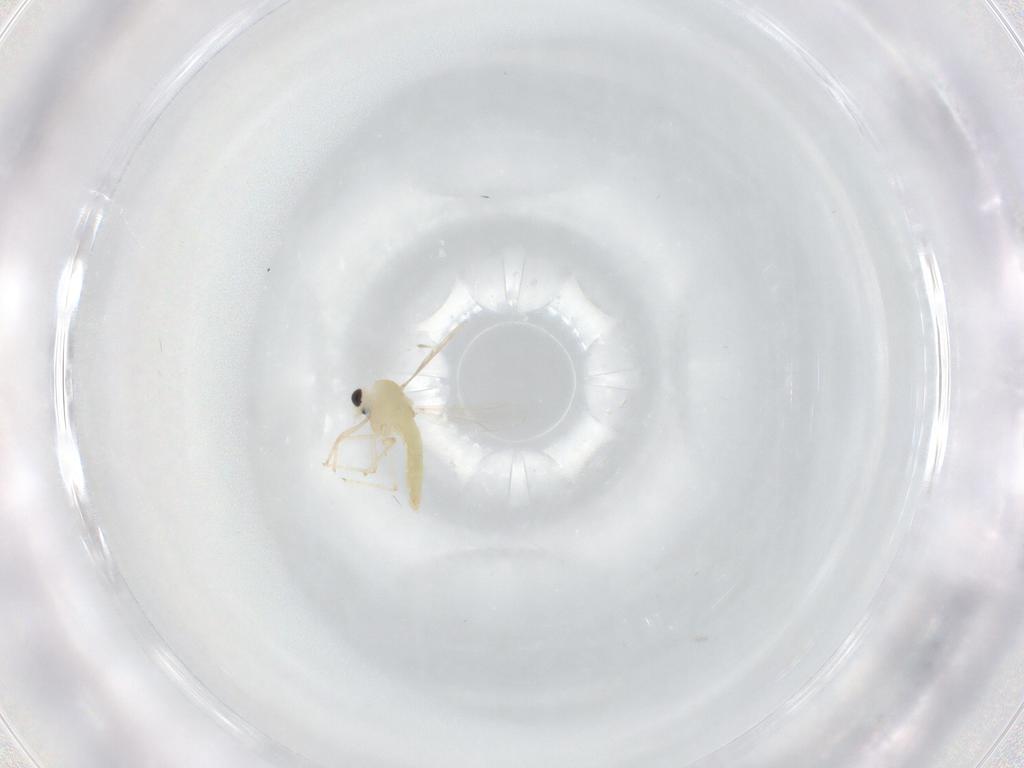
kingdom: Animalia
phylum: Arthropoda
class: Insecta
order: Diptera
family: Chironomidae
